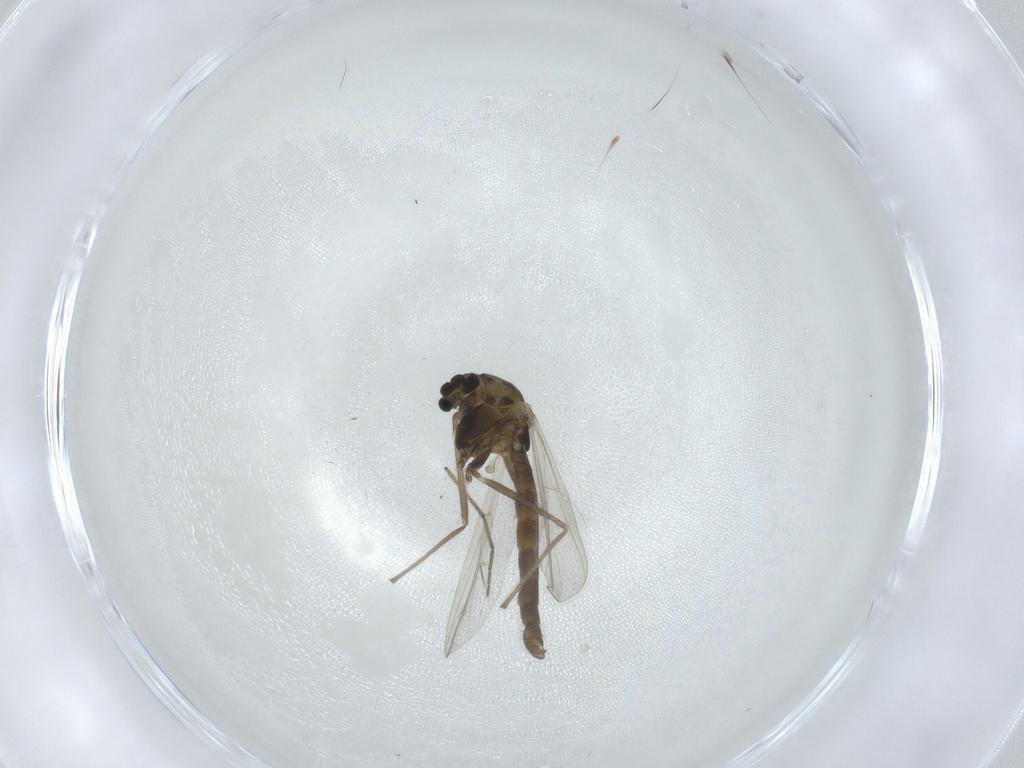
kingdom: Animalia
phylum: Arthropoda
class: Insecta
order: Diptera
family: Chironomidae
